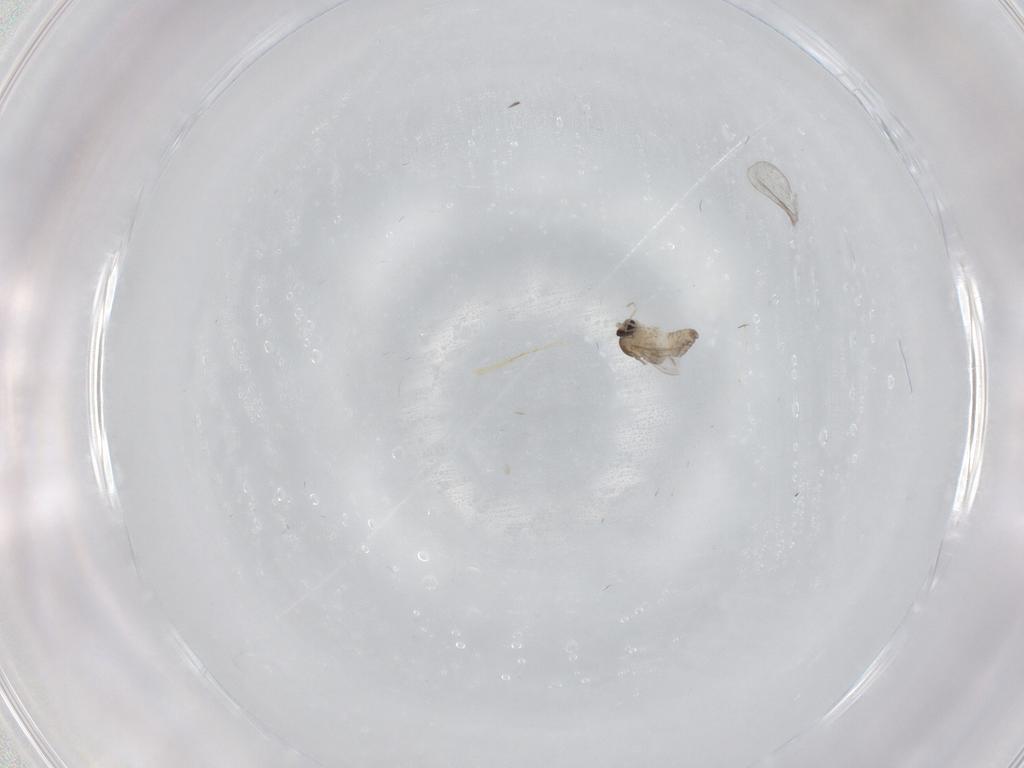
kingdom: Animalia
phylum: Arthropoda
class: Insecta
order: Diptera
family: Cecidomyiidae
